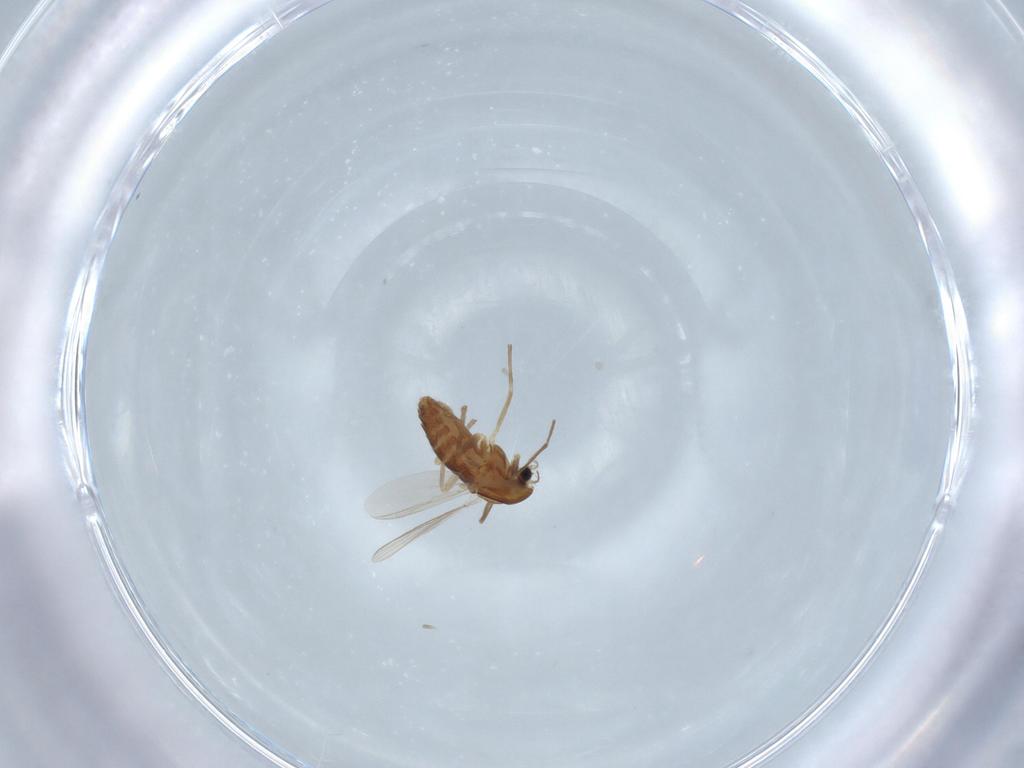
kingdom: Animalia
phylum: Arthropoda
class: Insecta
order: Diptera
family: Chironomidae
